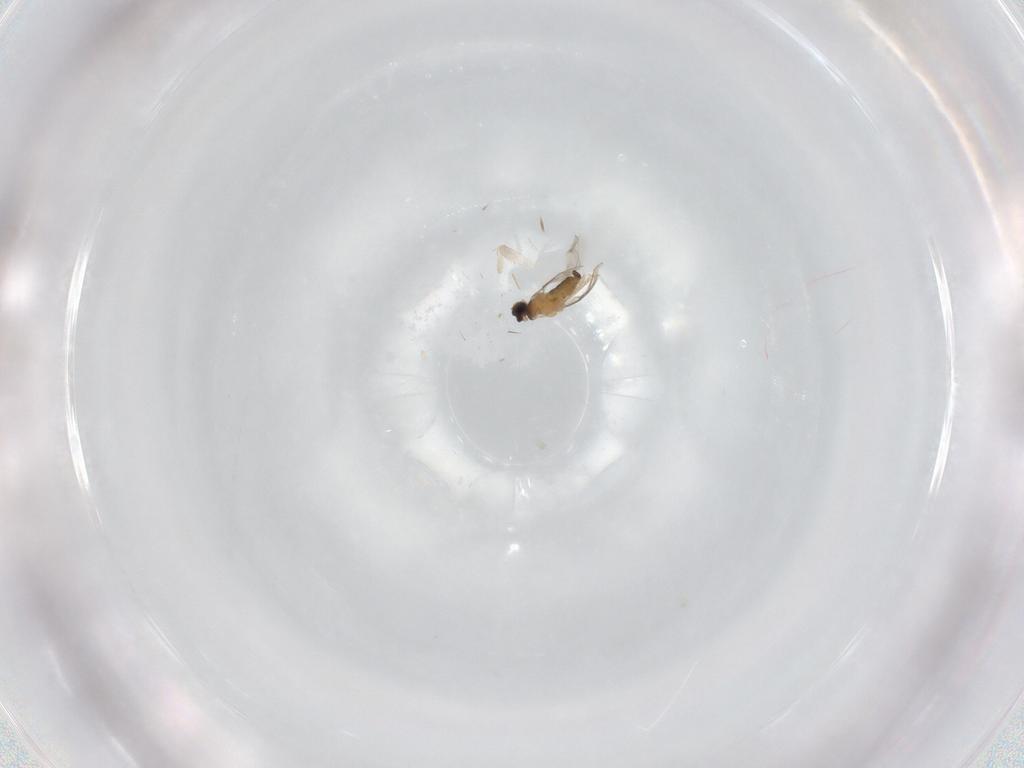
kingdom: Animalia
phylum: Arthropoda
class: Insecta
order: Diptera
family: Cecidomyiidae
